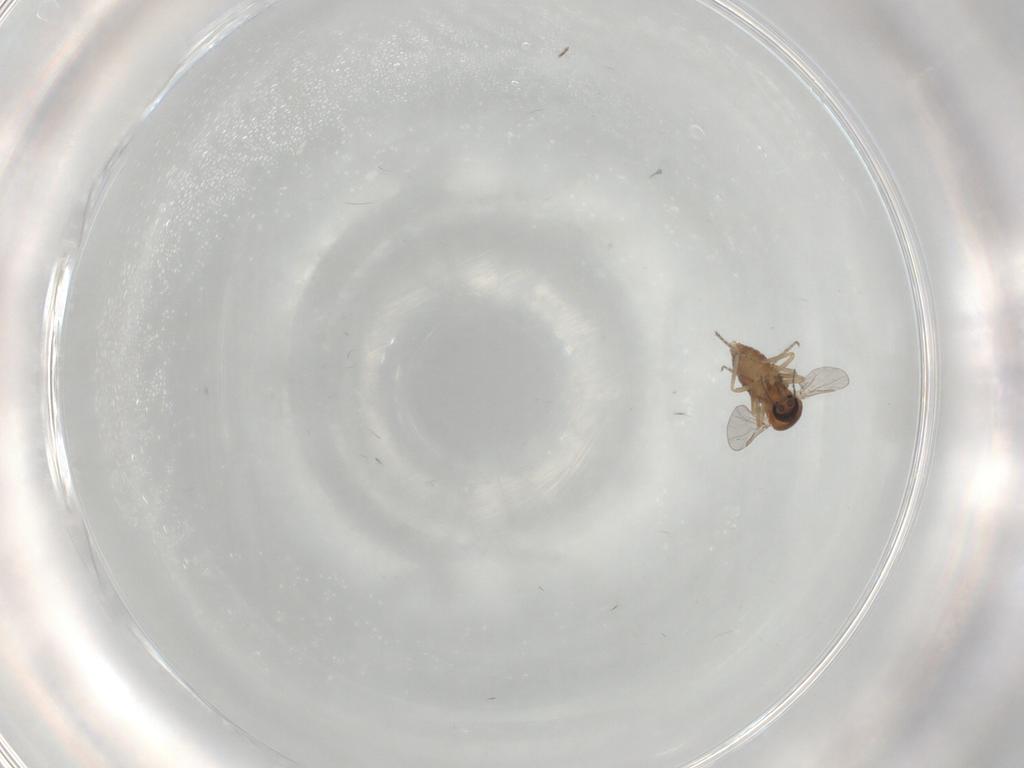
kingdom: Animalia
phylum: Arthropoda
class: Insecta
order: Diptera
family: Ceratopogonidae
